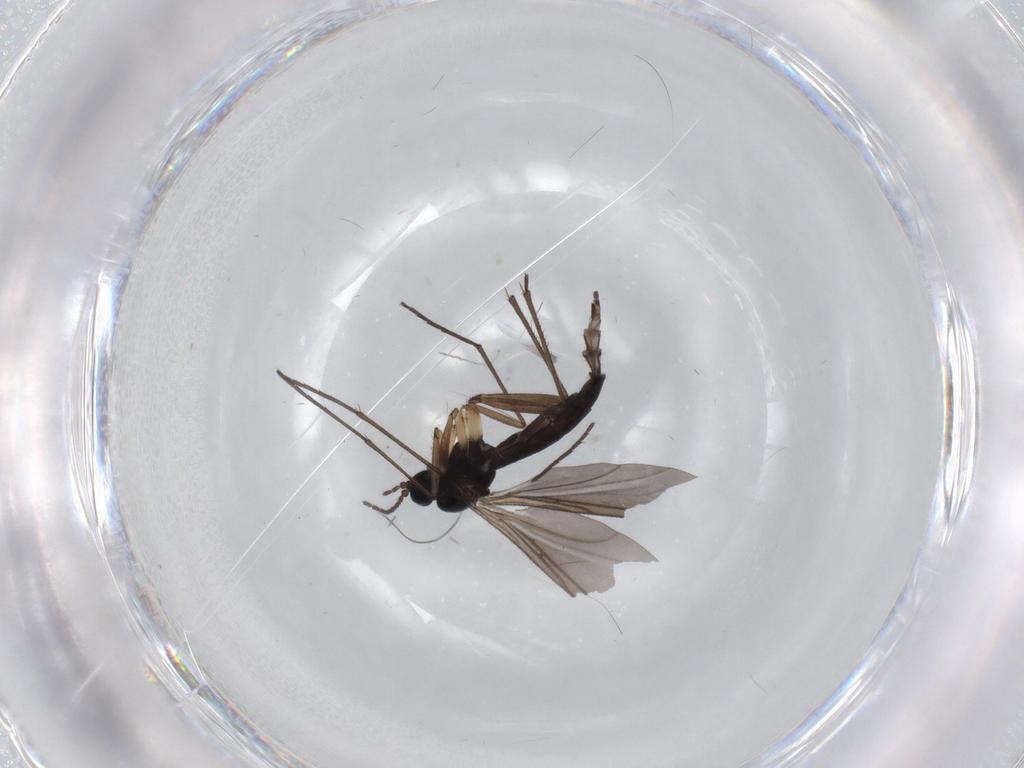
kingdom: Animalia
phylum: Arthropoda
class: Insecta
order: Diptera
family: Sciaridae
